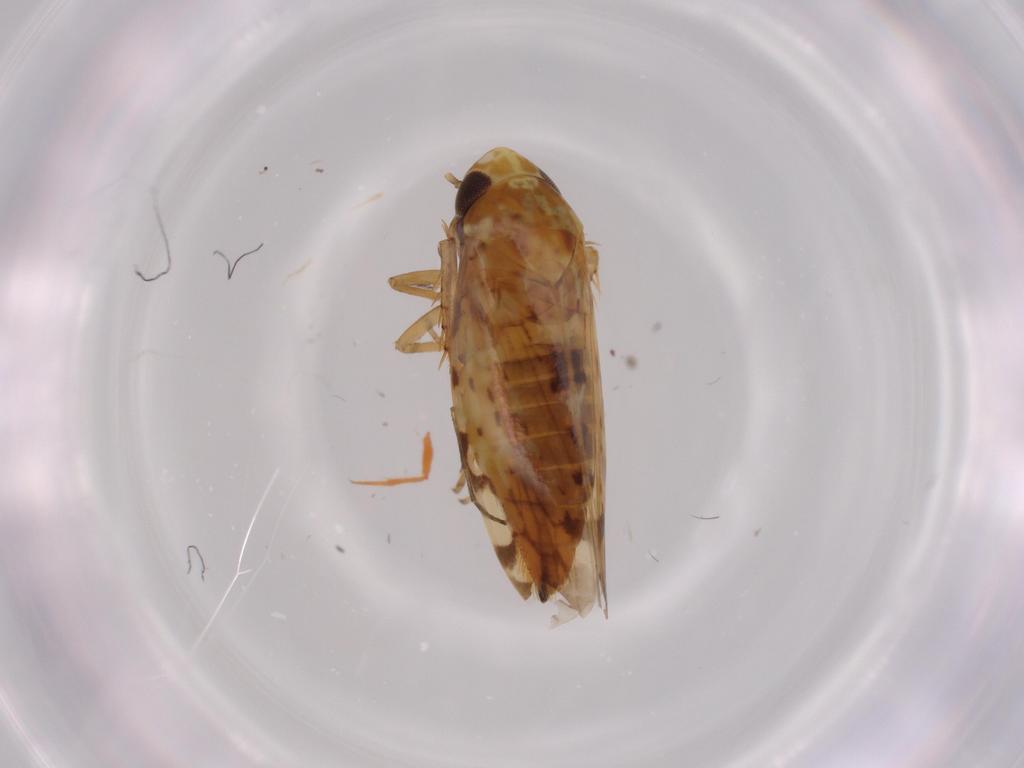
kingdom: Animalia
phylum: Arthropoda
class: Insecta
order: Hemiptera
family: Cicadellidae
